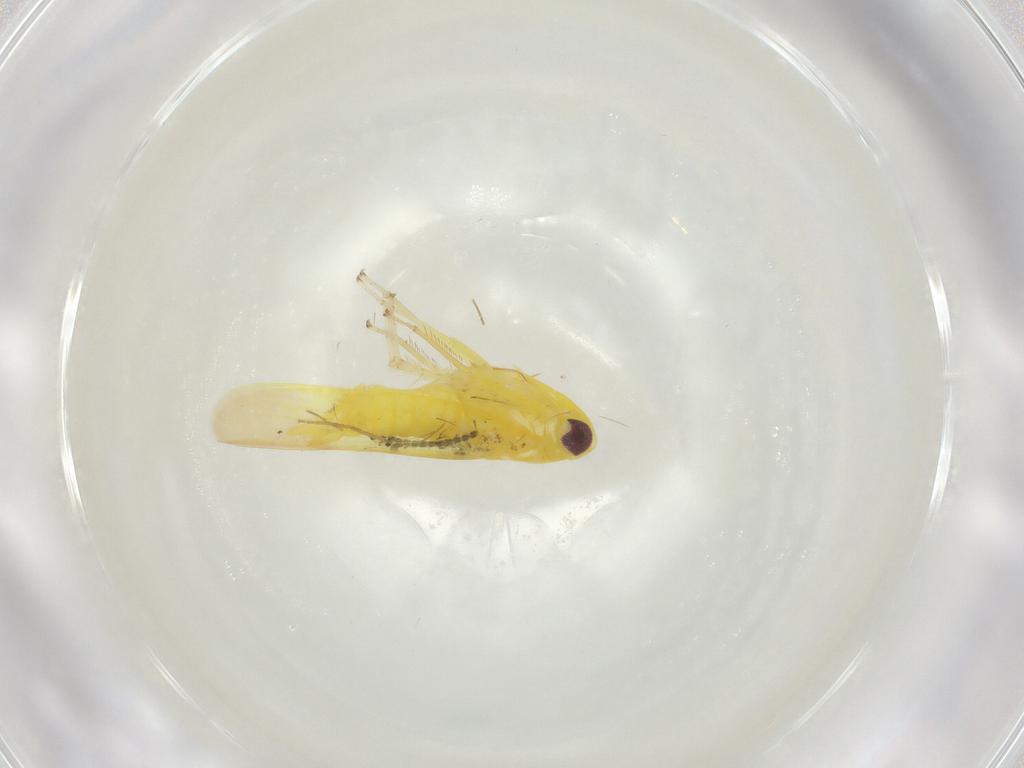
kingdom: Animalia
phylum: Arthropoda
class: Insecta
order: Hemiptera
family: Cicadellidae
